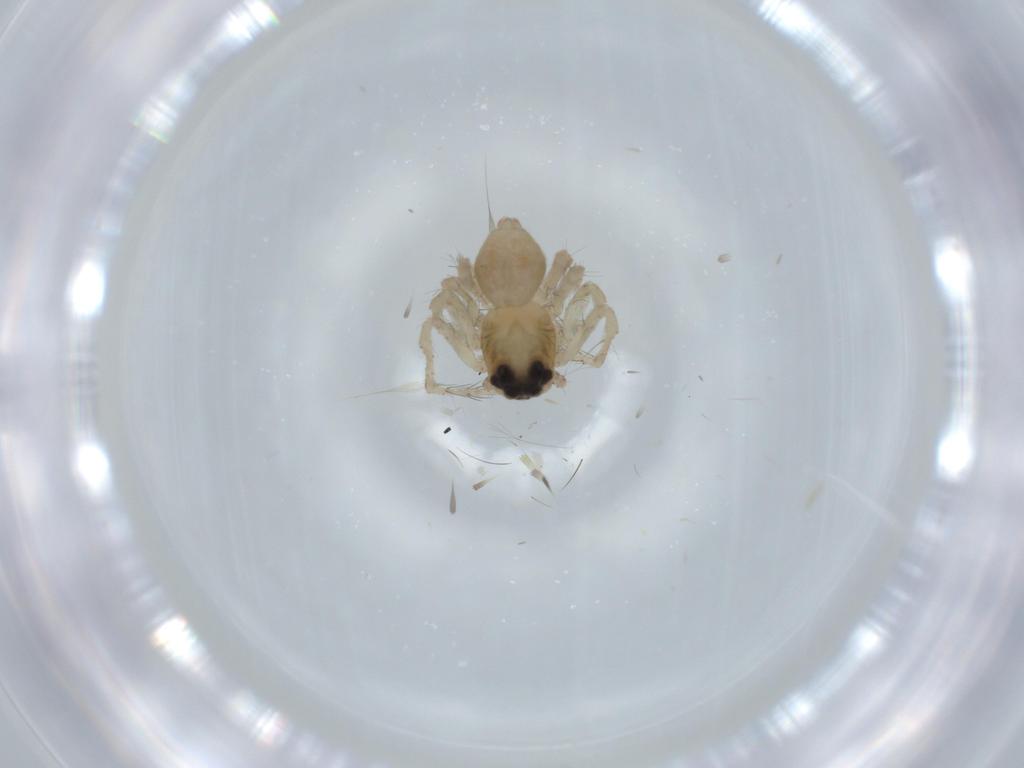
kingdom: Animalia
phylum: Arthropoda
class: Arachnida
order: Araneae
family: Oxyopidae
